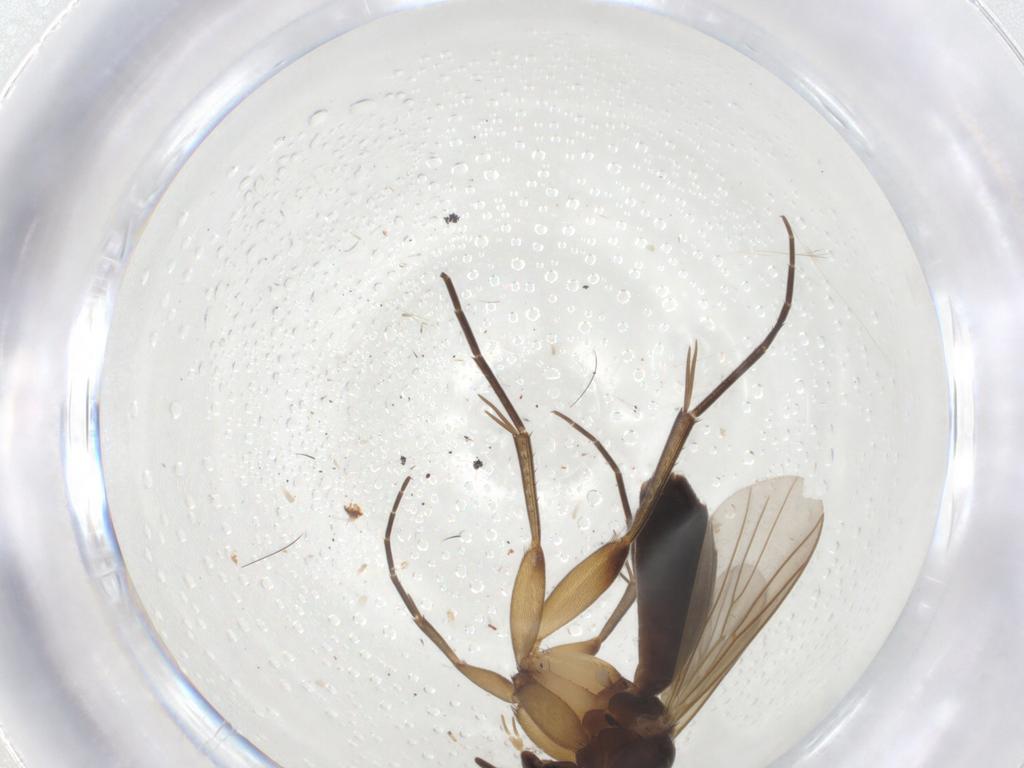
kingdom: Animalia
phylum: Arthropoda
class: Insecta
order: Diptera
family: Mycetophilidae
